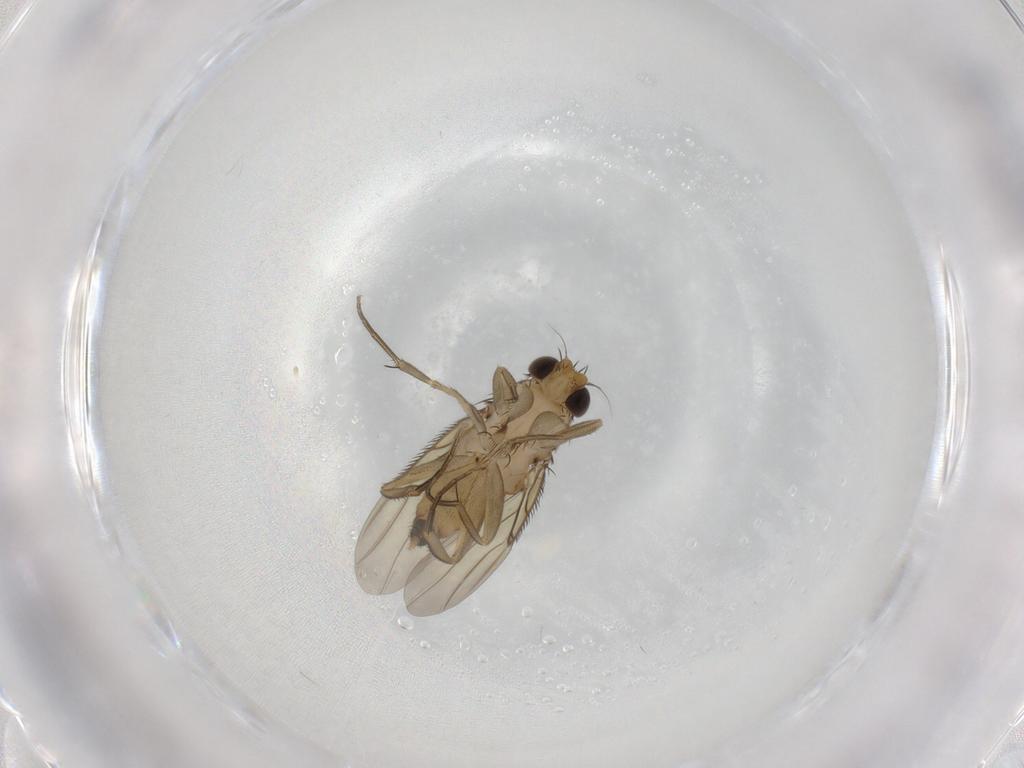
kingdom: Animalia
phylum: Arthropoda
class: Insecta
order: Diptera
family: Phoridae
